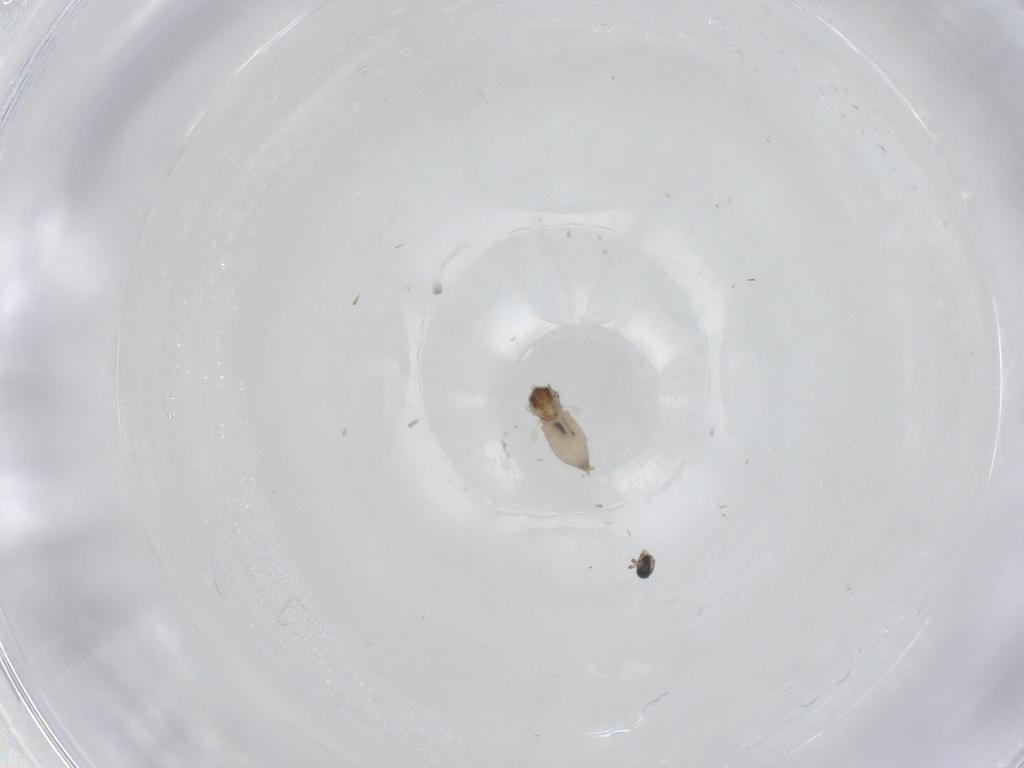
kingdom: Animalia
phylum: Arthropoda
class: Insecta
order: Diptera
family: Cecidomyiidae
